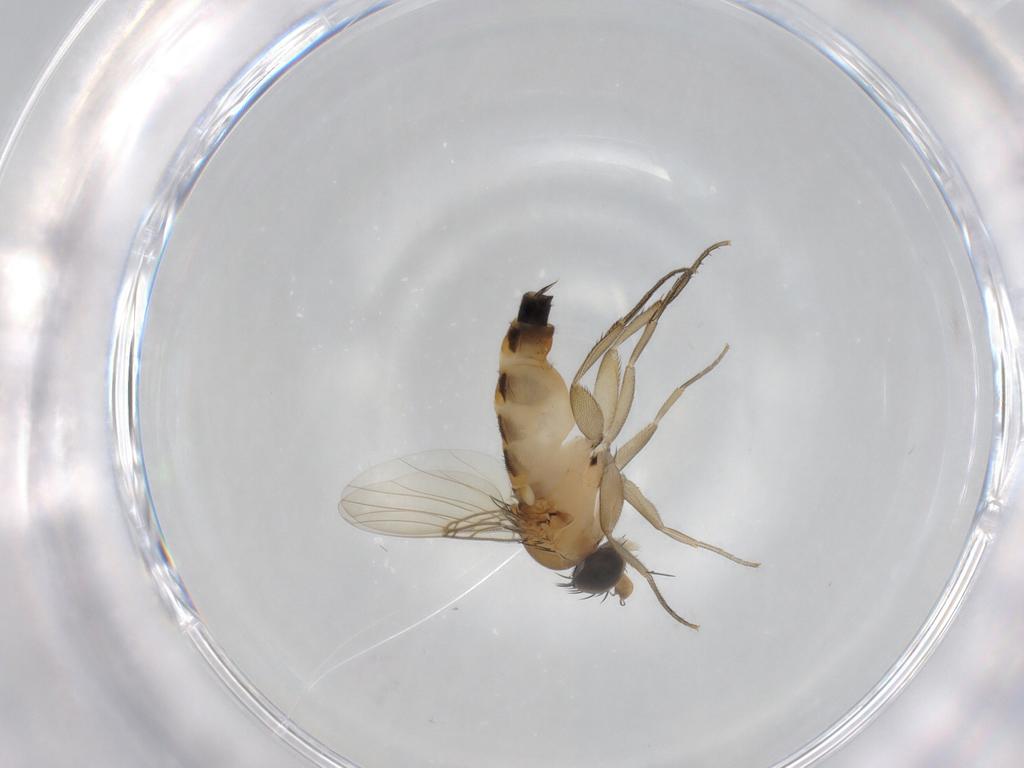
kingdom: Animalia
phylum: Arthropoda
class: Insecta
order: Diptera
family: Phoridae
